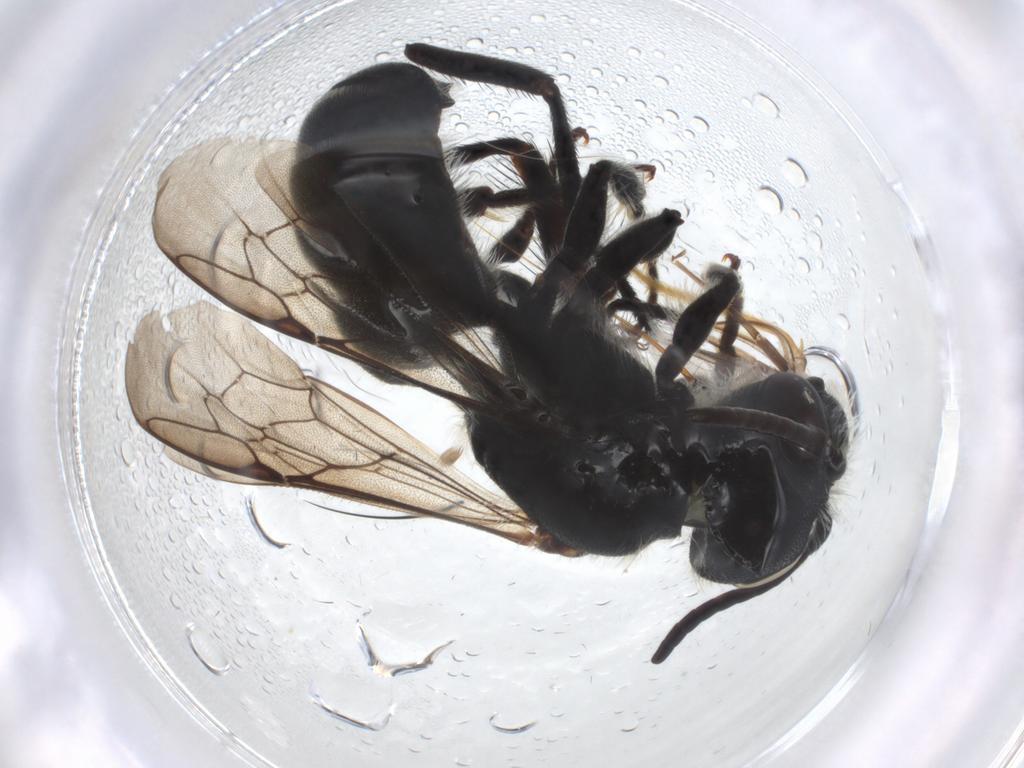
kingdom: Animalia
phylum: Arthropoda
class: Insecta
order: Hymenoptera
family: Megachilidae
